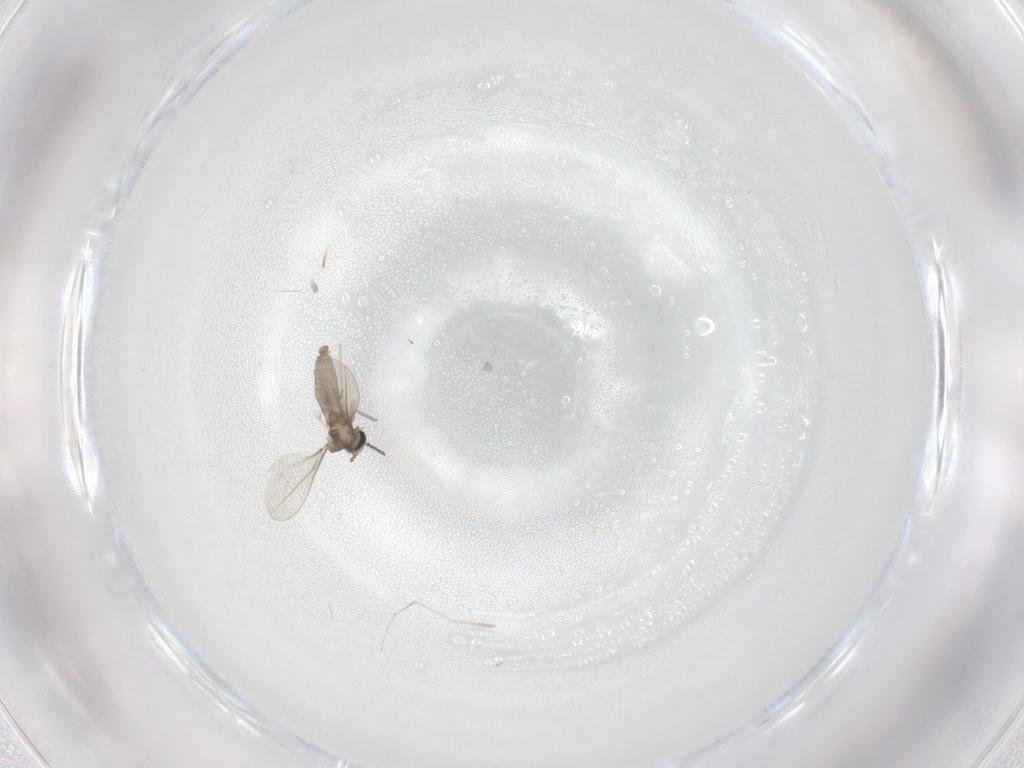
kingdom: Animalia
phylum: Arthropoda
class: Insecta
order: Diptera
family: Cecidomyiidae
